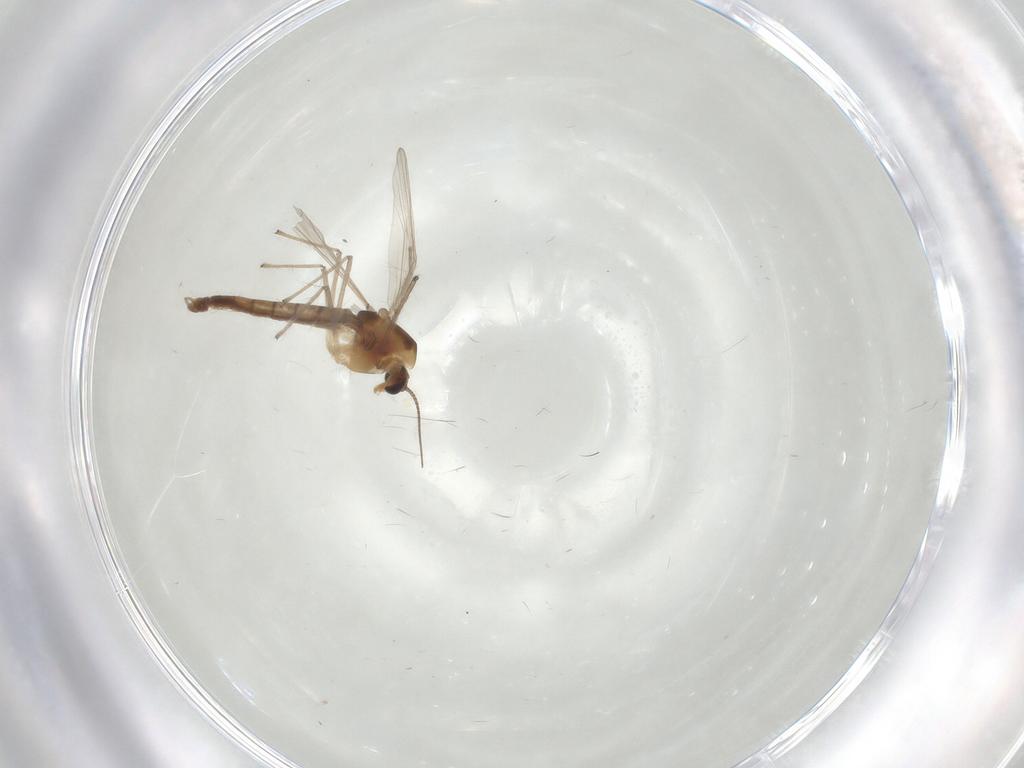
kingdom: Animalia
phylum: Arthropoda
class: Insecta
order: Diptera
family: Chironomidae
